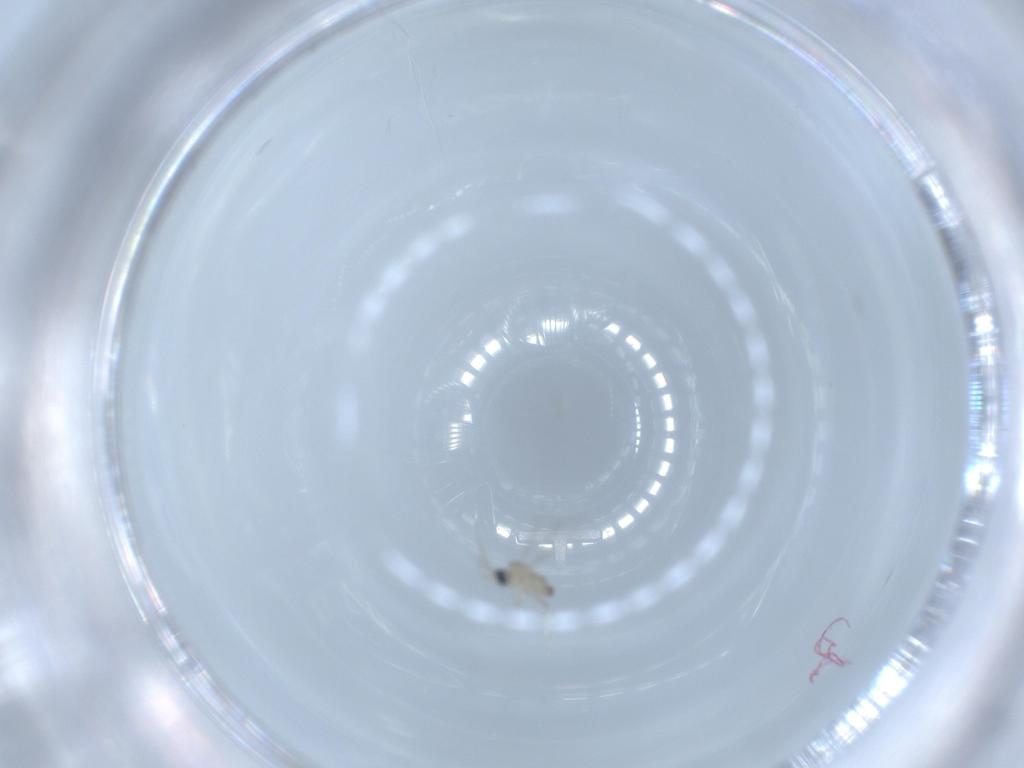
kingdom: Animalia
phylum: Arthropoda
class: Insecta
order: Diptera
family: Cecidomyiidae
